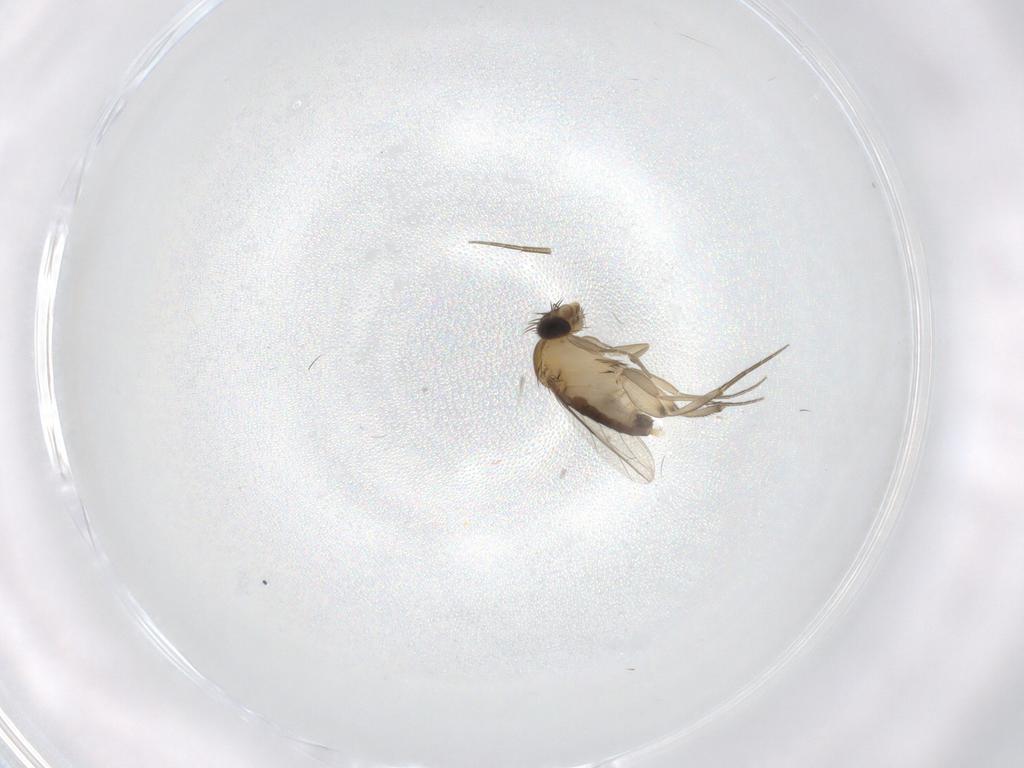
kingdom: Animalia
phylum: Arthropoda
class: Insecta
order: Diptera
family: Phoridae
